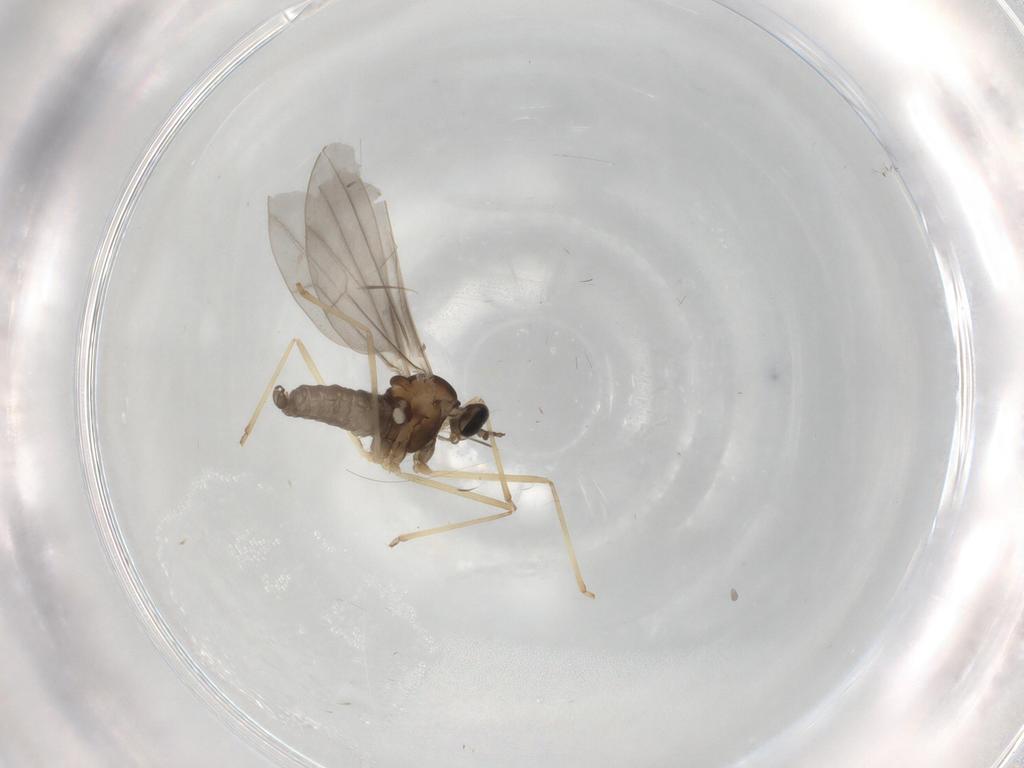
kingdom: Animalia
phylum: Arthropoda
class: Insecta
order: Diptera
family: Cecidomyiidae
